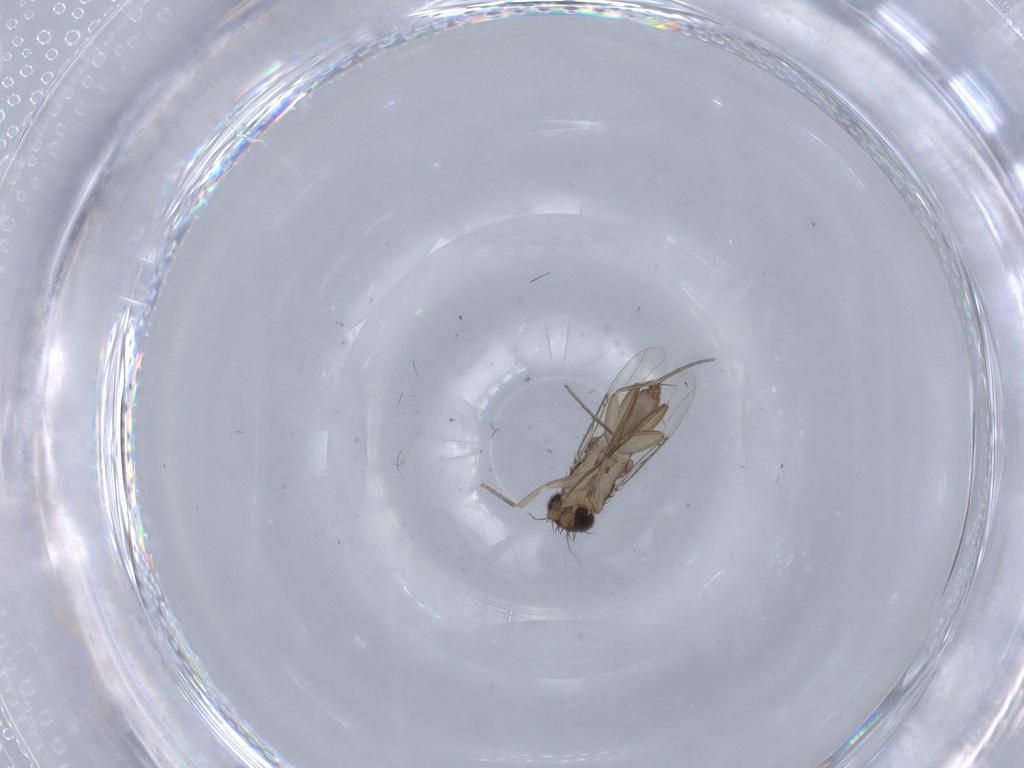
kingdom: Animalia
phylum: Arthropoda
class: Insecta
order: Diptera
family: Phoridae
